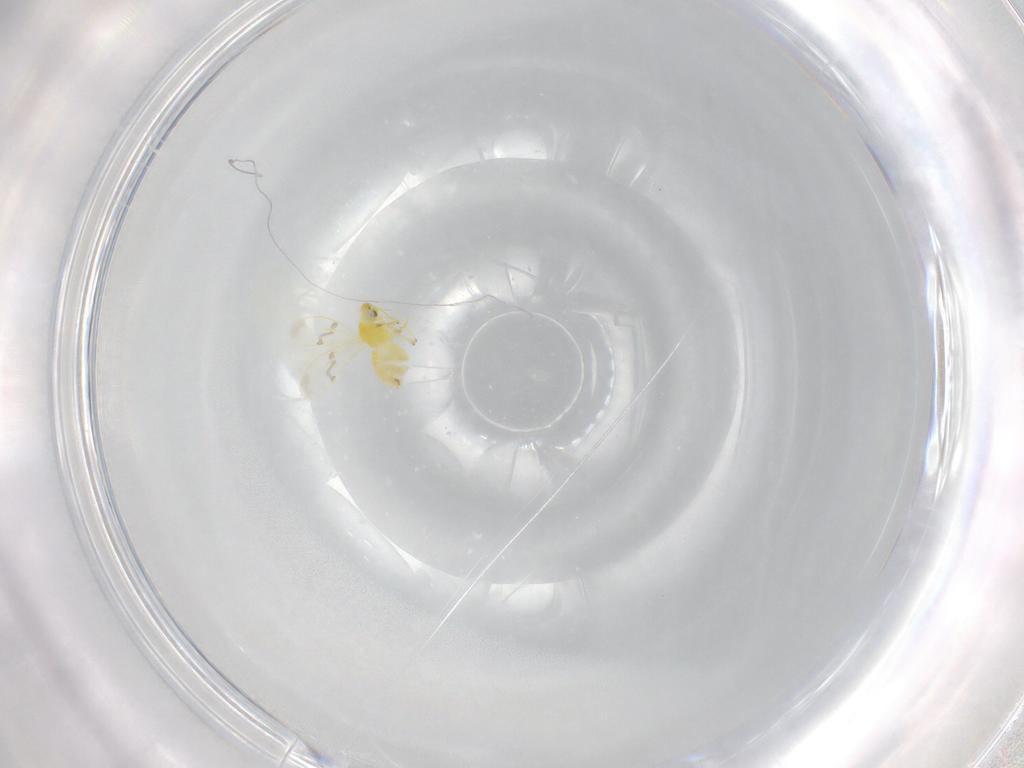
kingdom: Animalia
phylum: Arthropoda
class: Insecta
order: Hemiptera
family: Aleyrodidae
